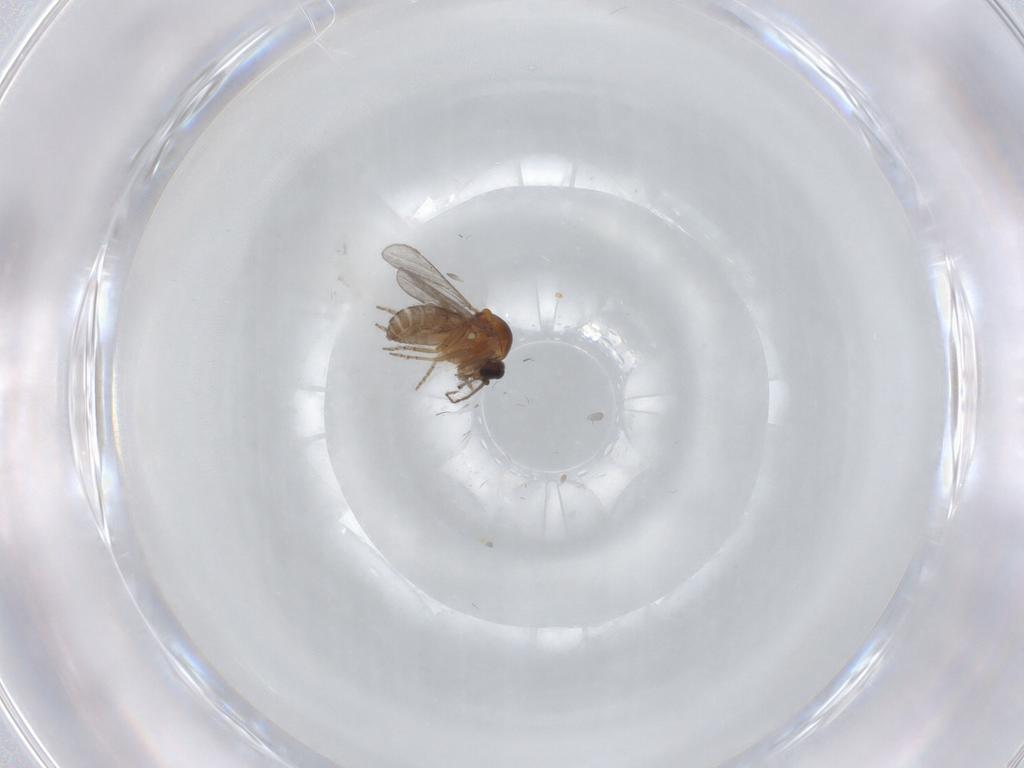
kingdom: Animalia
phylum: Arthropoda
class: Insecta
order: Diptera
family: Ceratopogonidae
